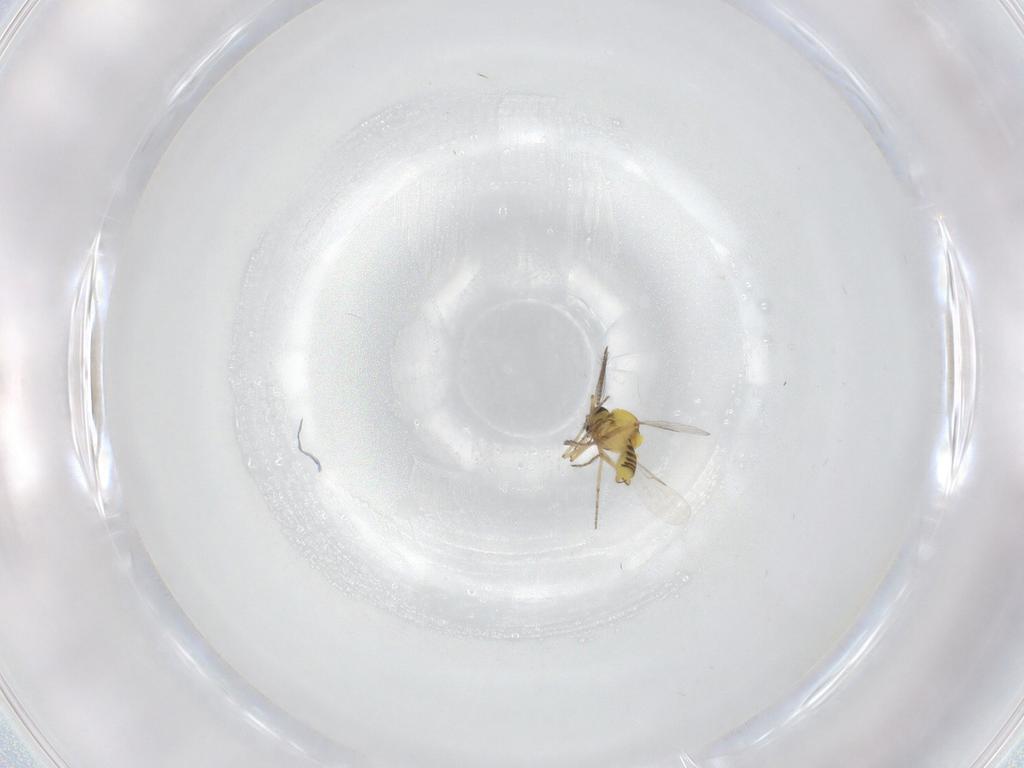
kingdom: Animalia
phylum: Arthropoda
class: Insecta
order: Diptera
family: Ceratopogonidae
